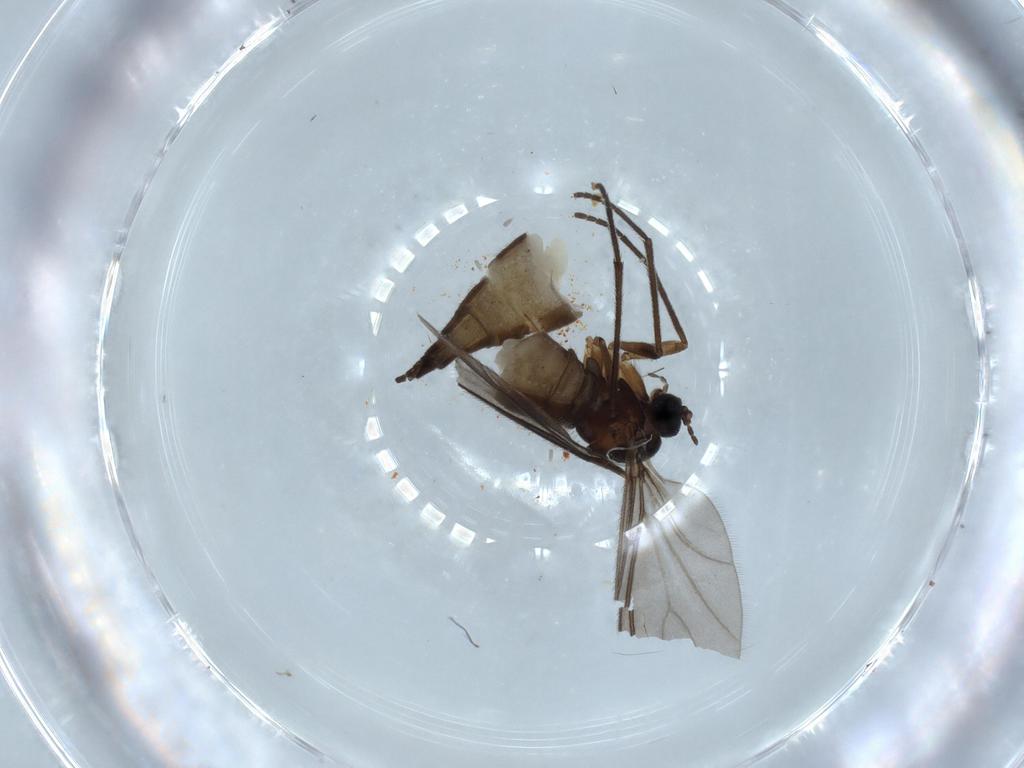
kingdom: Animalia
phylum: Arthropoda
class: Insecta
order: Diptera
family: Sciaridae
